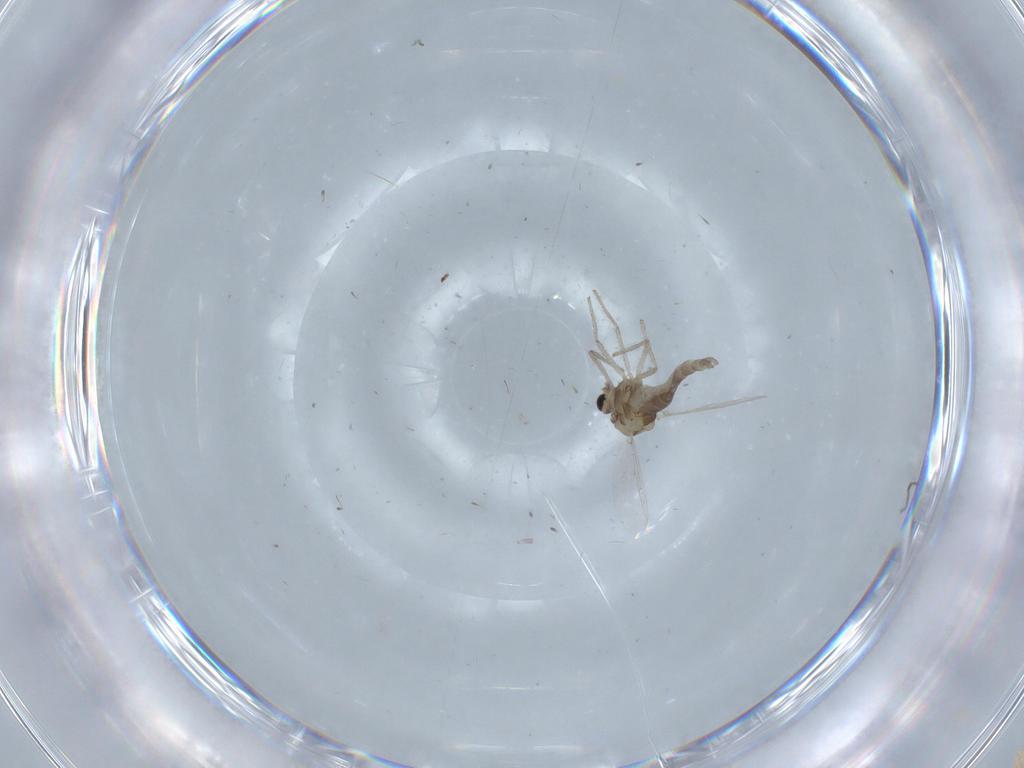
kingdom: Animalia
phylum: Arthropoda
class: Insecta
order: Diptera
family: Chironomidae
